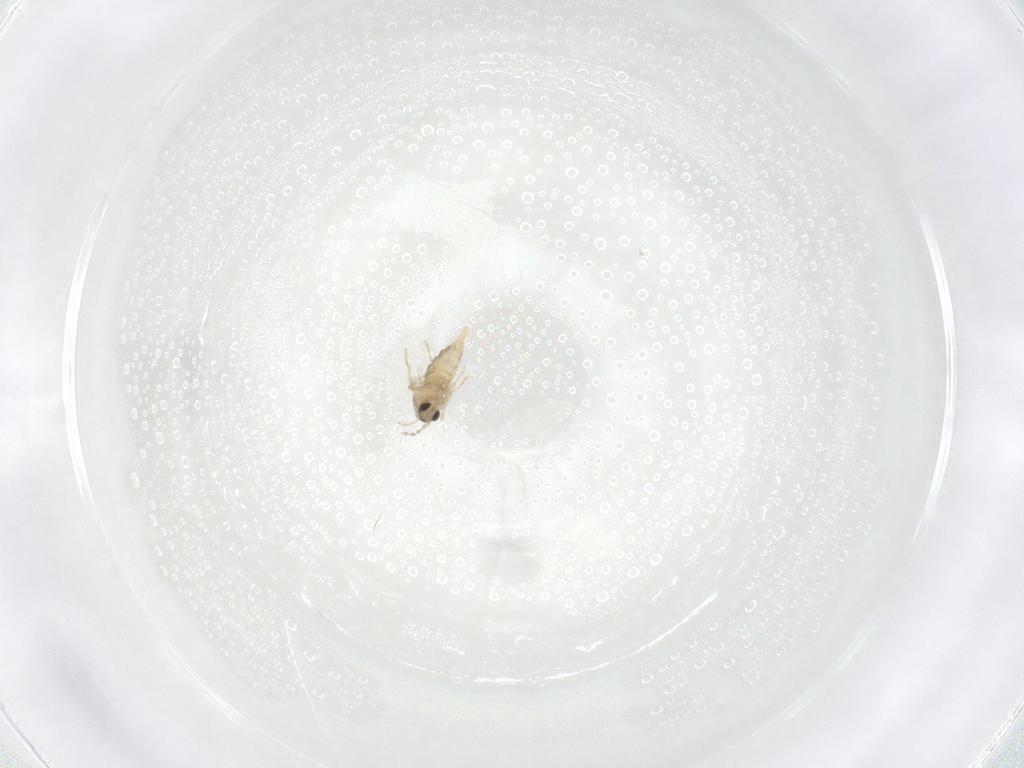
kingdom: Animalia
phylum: Arthropoda
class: Insecta
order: Diptera
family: Cecidomyiidae
